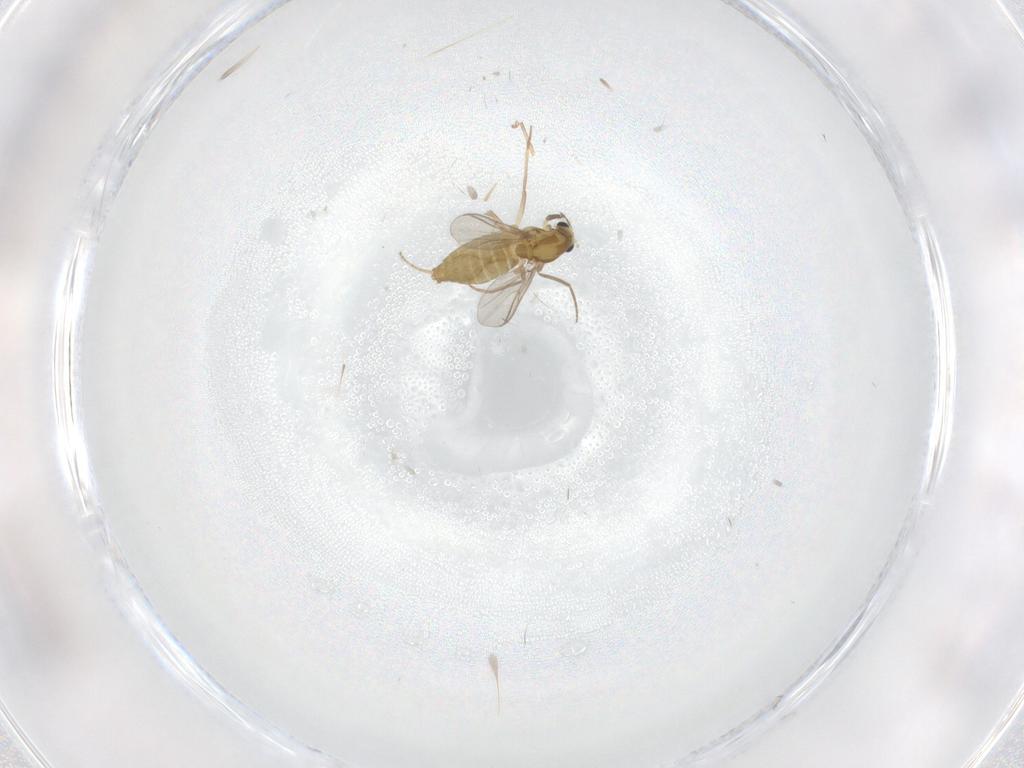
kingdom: Animalia
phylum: Arthropoda
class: Insecta
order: Diptera
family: Chironomidae
